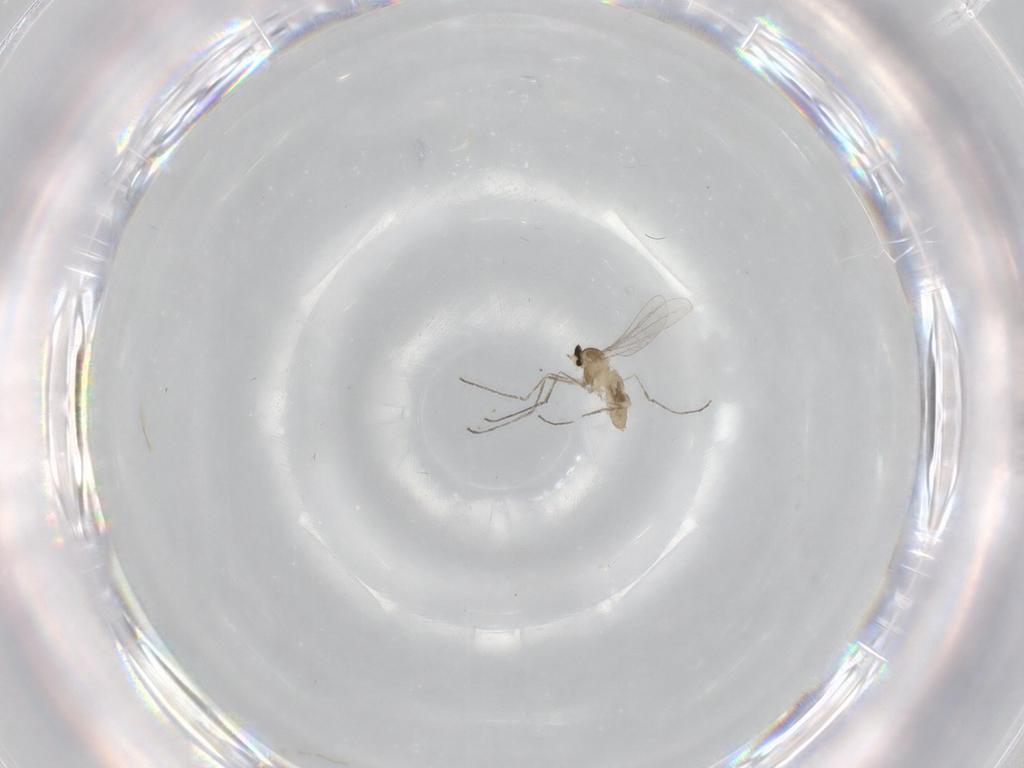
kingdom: Animalia
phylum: Arthropoda
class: Insecta
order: Diptera
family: Cecidomyiidae
